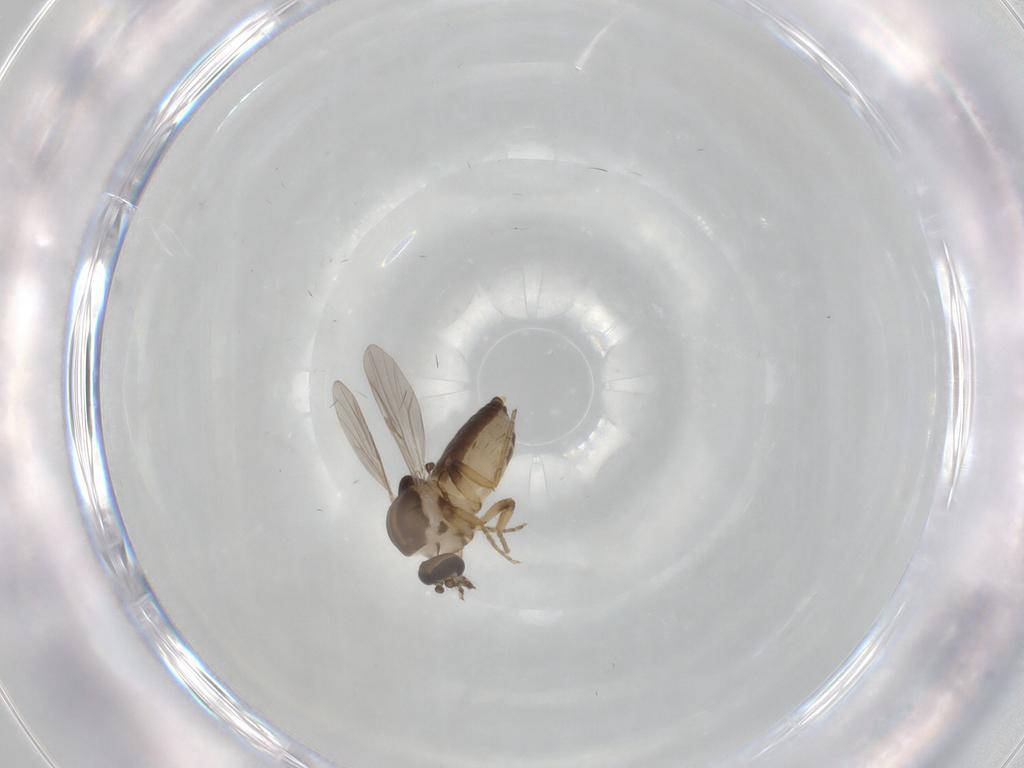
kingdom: Animalia
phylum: Arthropoda
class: Insecta
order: Diptera
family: Ceratopogonidae
